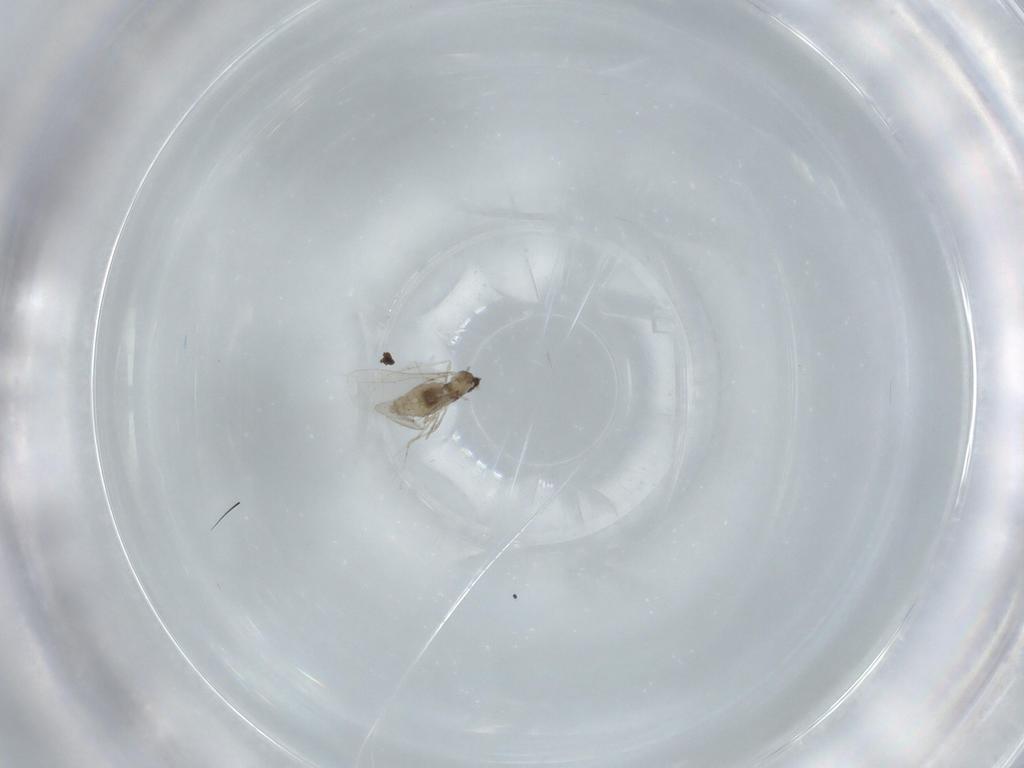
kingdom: Animalia
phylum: Arthropoda
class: Insecta
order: Diptera
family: Cecidomyiidae
